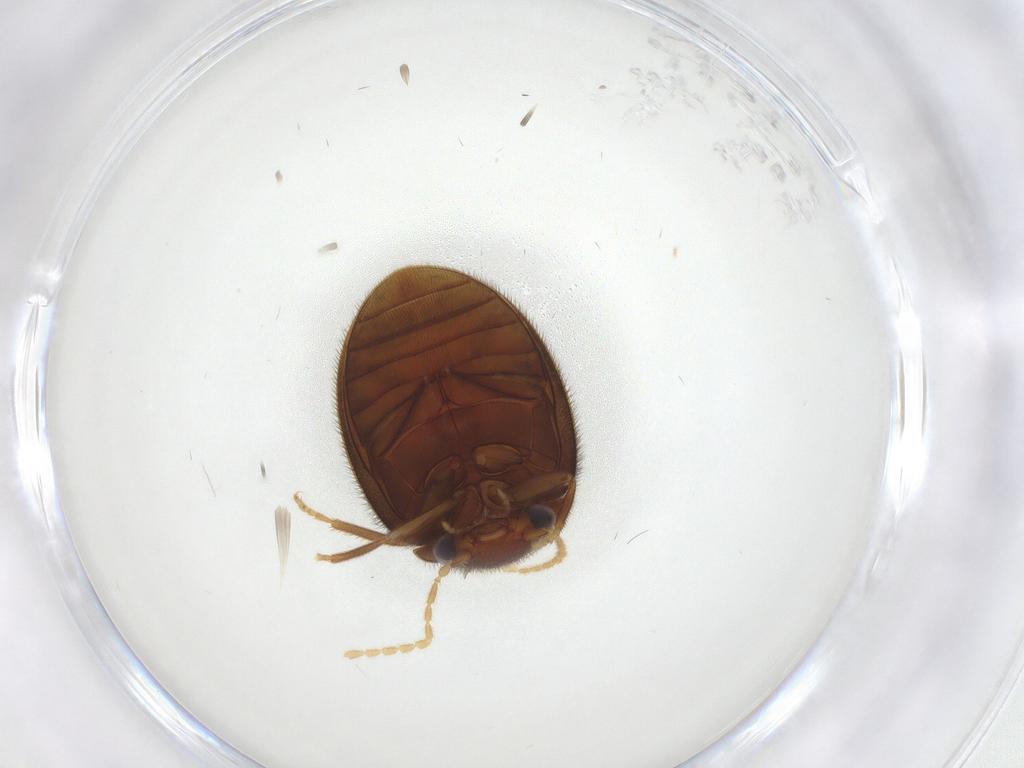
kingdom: Animalia
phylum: Arthropoda
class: Insecta
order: Coleoptera
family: Scirtidae
